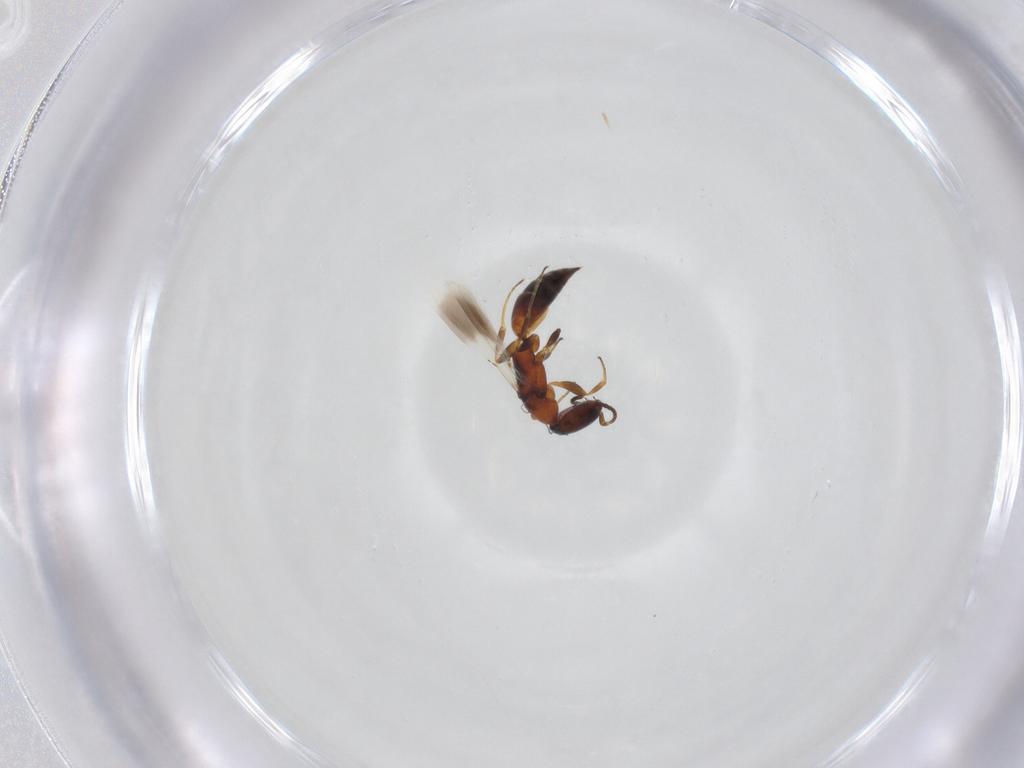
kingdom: Animalia
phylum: Arthropoda
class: Insecta
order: Hymenoptera
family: Bethylidae
